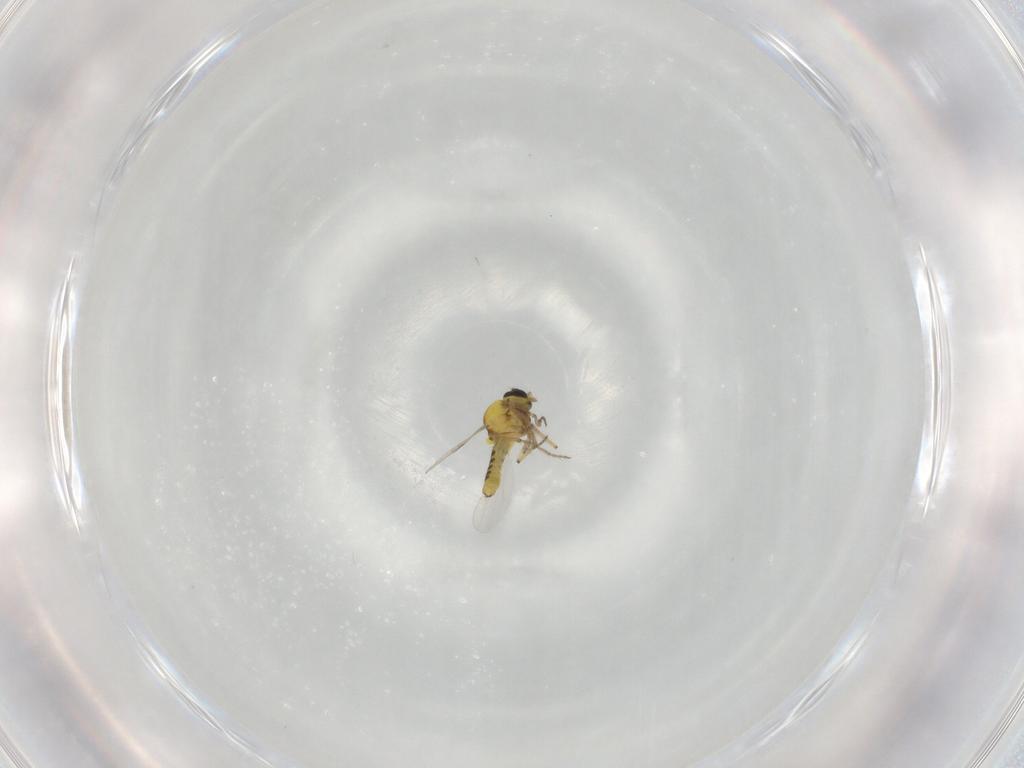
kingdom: Animalia
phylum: Arthropoda
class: Insecta
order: Diptera
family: Ceratopogonidae
